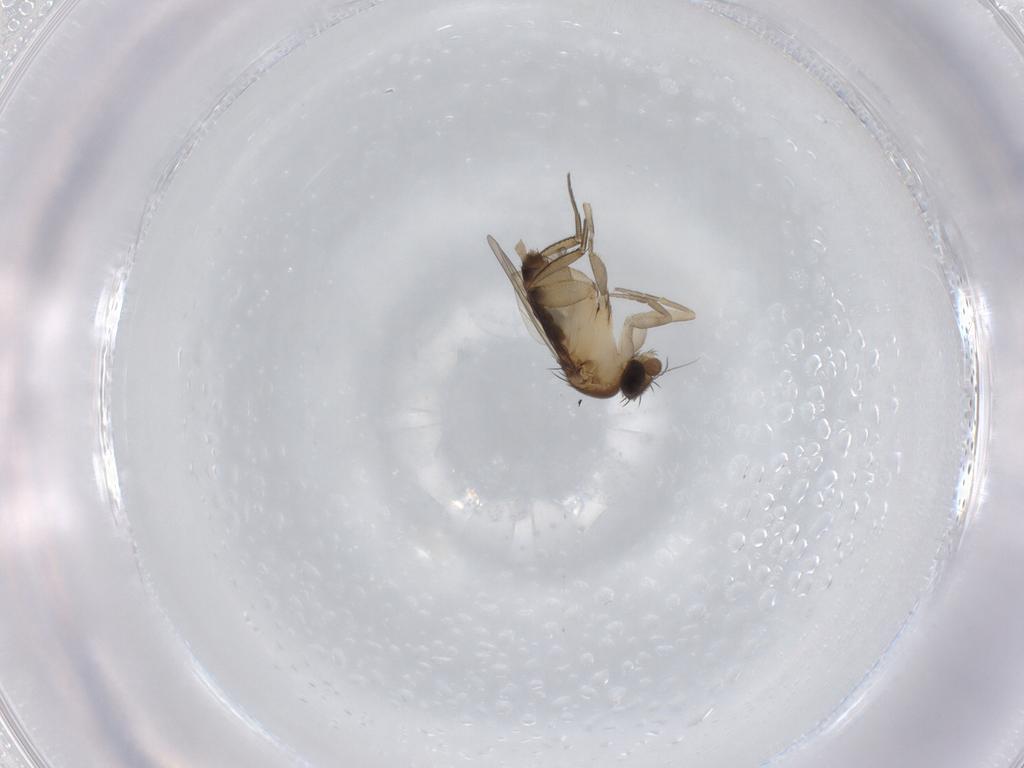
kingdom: Animalia
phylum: Arthropoda
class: Insecta
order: Diptera
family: Phoridae
